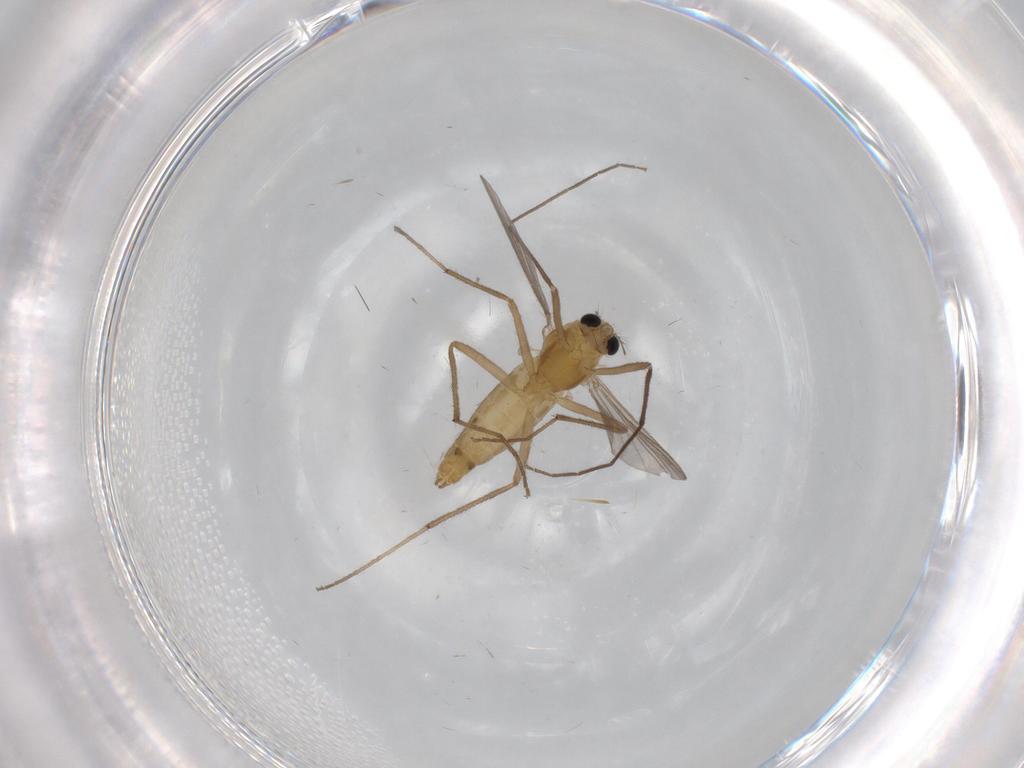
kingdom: Animalia
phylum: Arthropoda
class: Insecta
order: Diptera
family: Chironomidae
